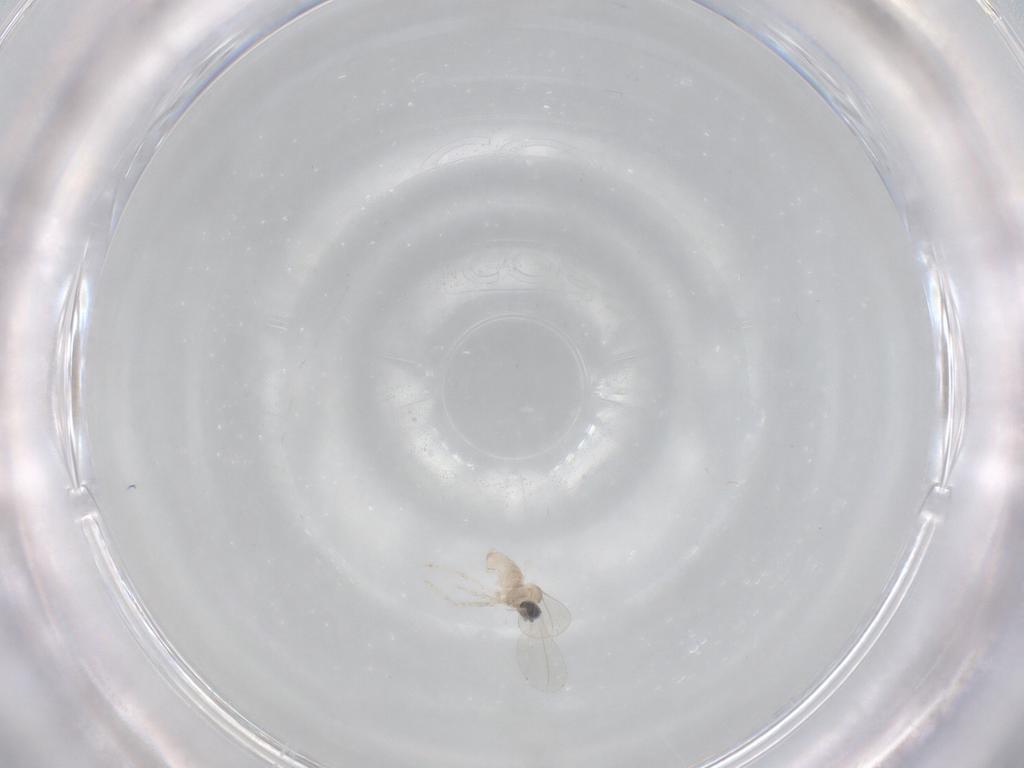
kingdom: Animalia
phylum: Arthropoda
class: Insecta
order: Diptera
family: Cecidomyiidae
